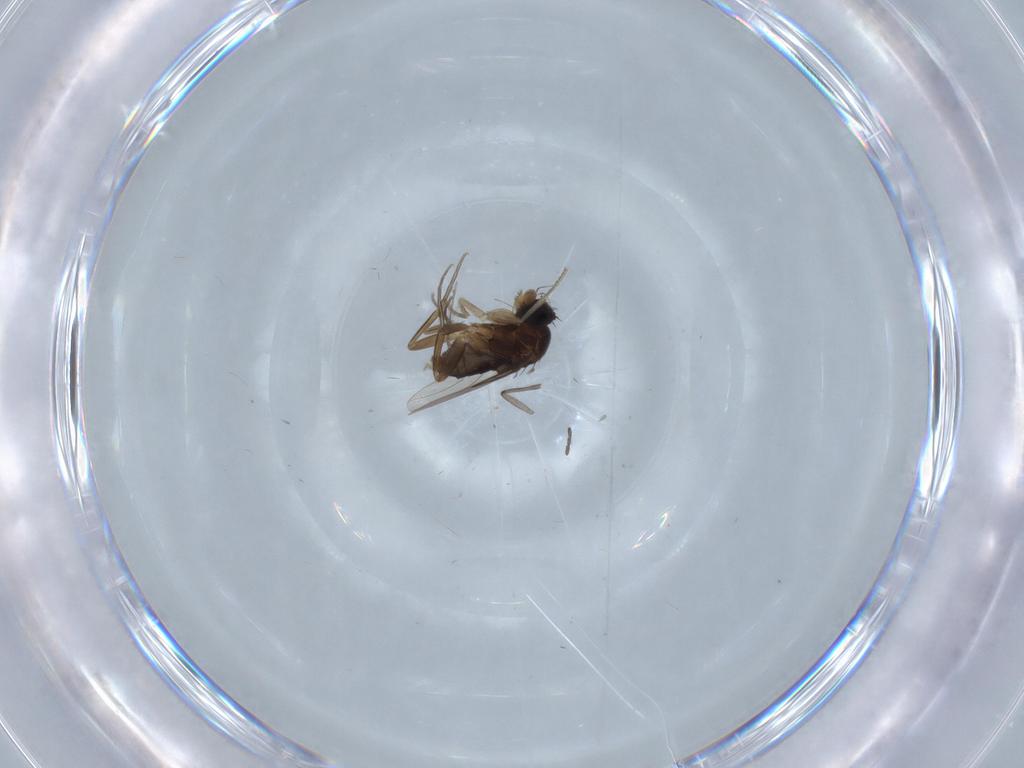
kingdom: Animalia
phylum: Arthropoda
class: Insecta
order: Diptera
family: Phoridae
